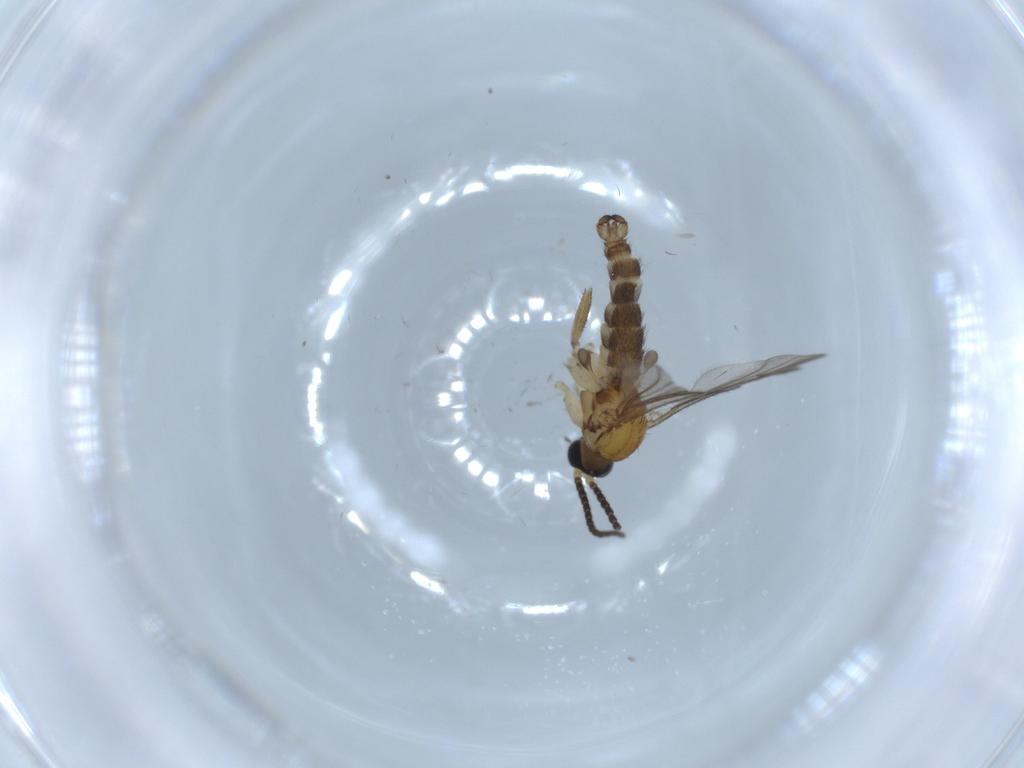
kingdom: Animalia
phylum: Arthropoda
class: Insecta
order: Diptera
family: Sciaridae
